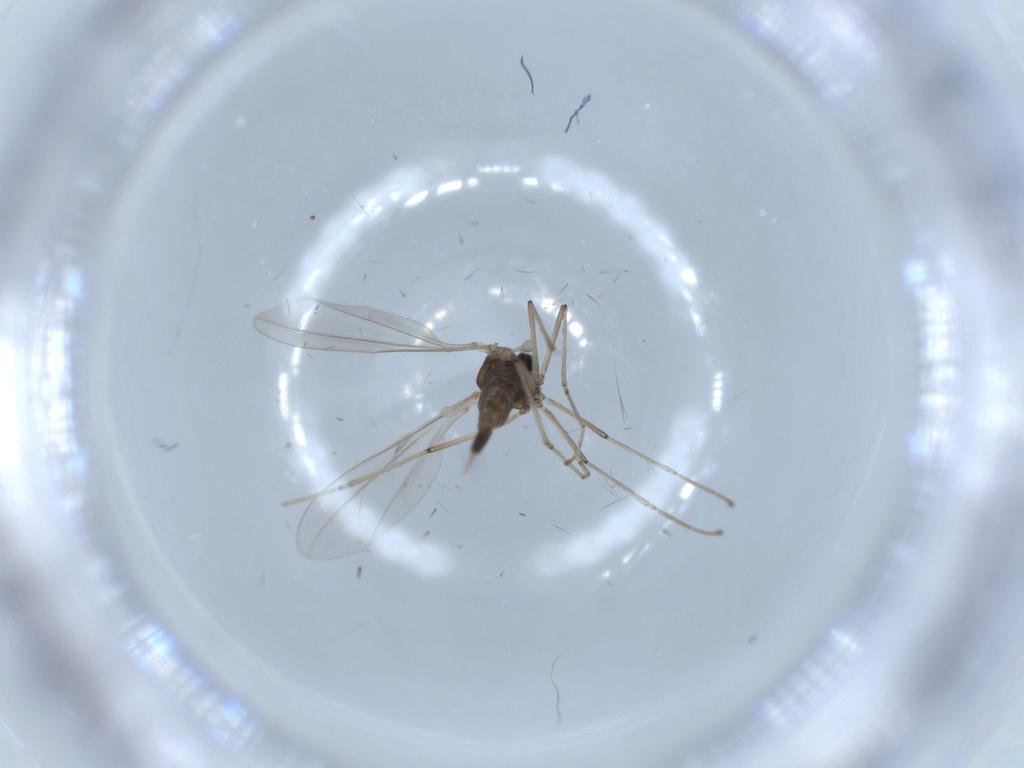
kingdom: Animalia
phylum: Arthropoda
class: Insecta
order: Diptera
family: Cecidomyiidae
